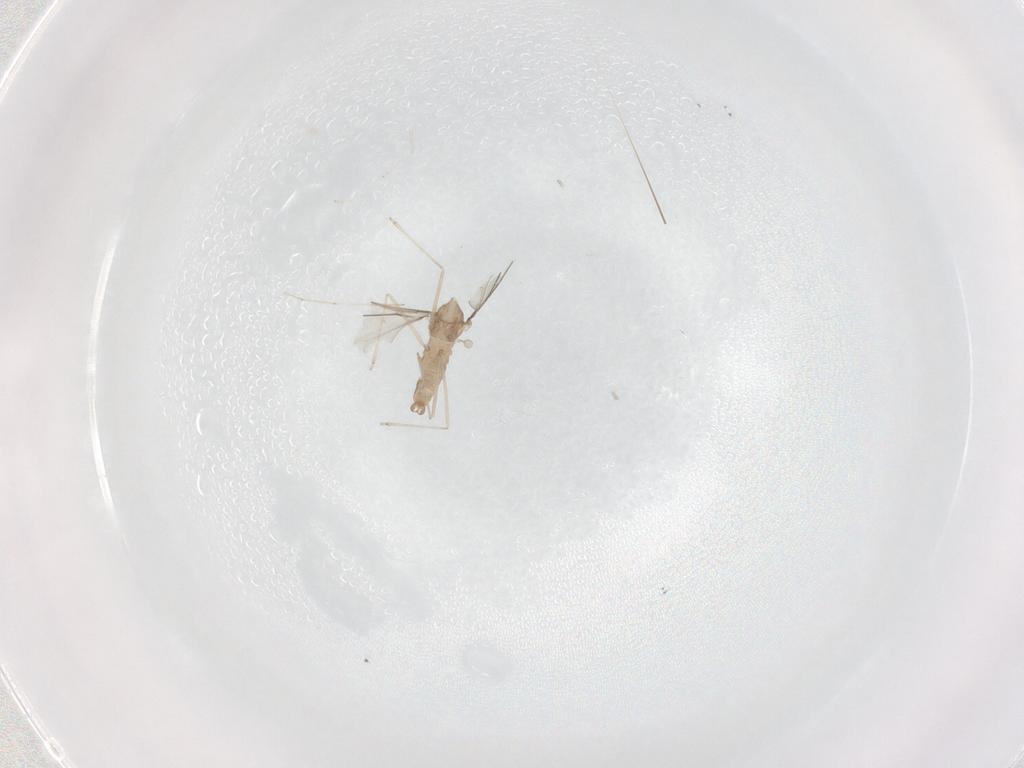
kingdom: Animalia
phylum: Arthropoda
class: Insecta
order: Diptera
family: Cecidomyiidae
